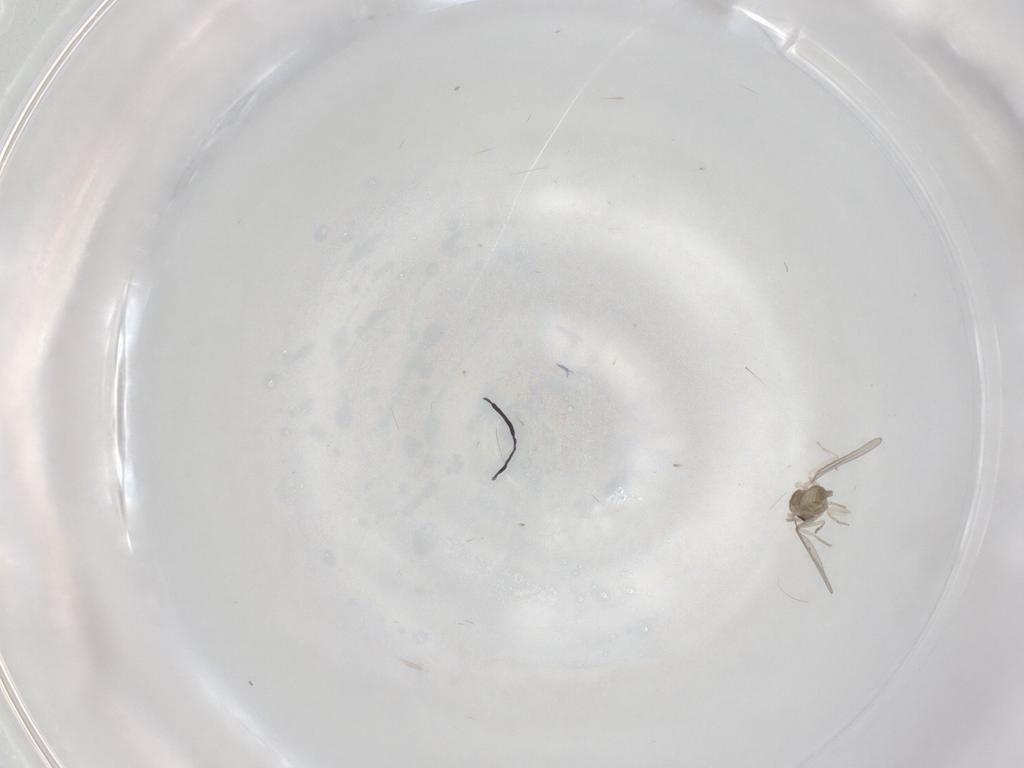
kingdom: Animalia
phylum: Arthropoda
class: Insecta
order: Diptera
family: Cecidomyiidae
